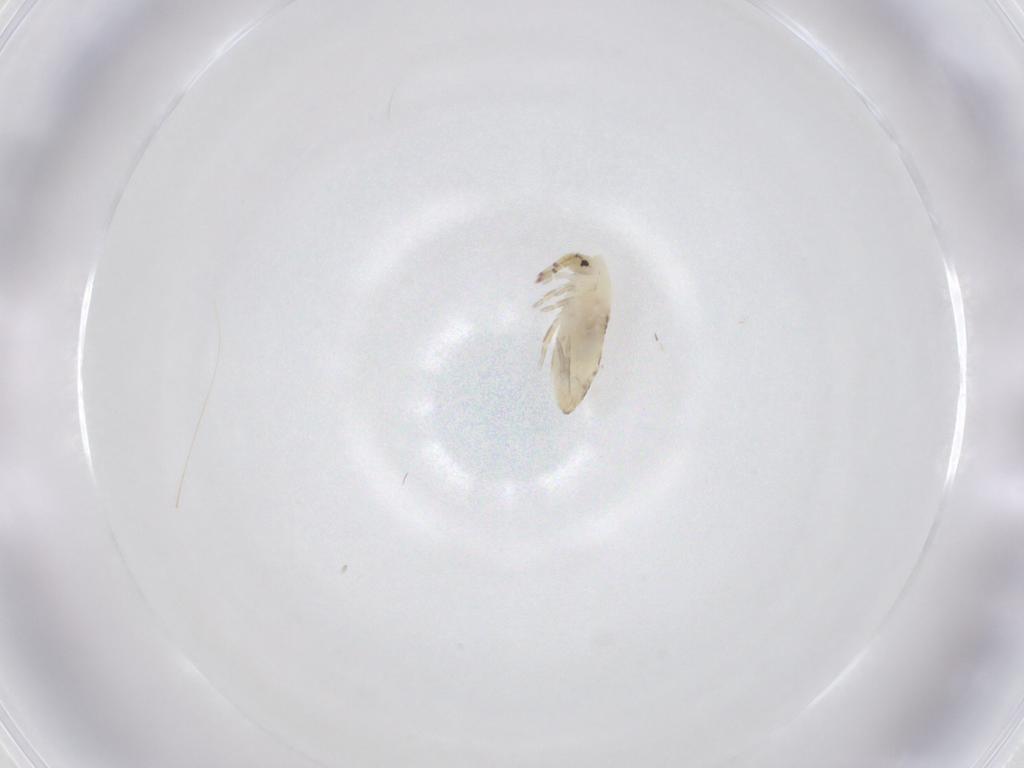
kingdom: Animalia
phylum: Arthropoda
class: Collembola
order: Entomobryomorpha
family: Entomobryidae
